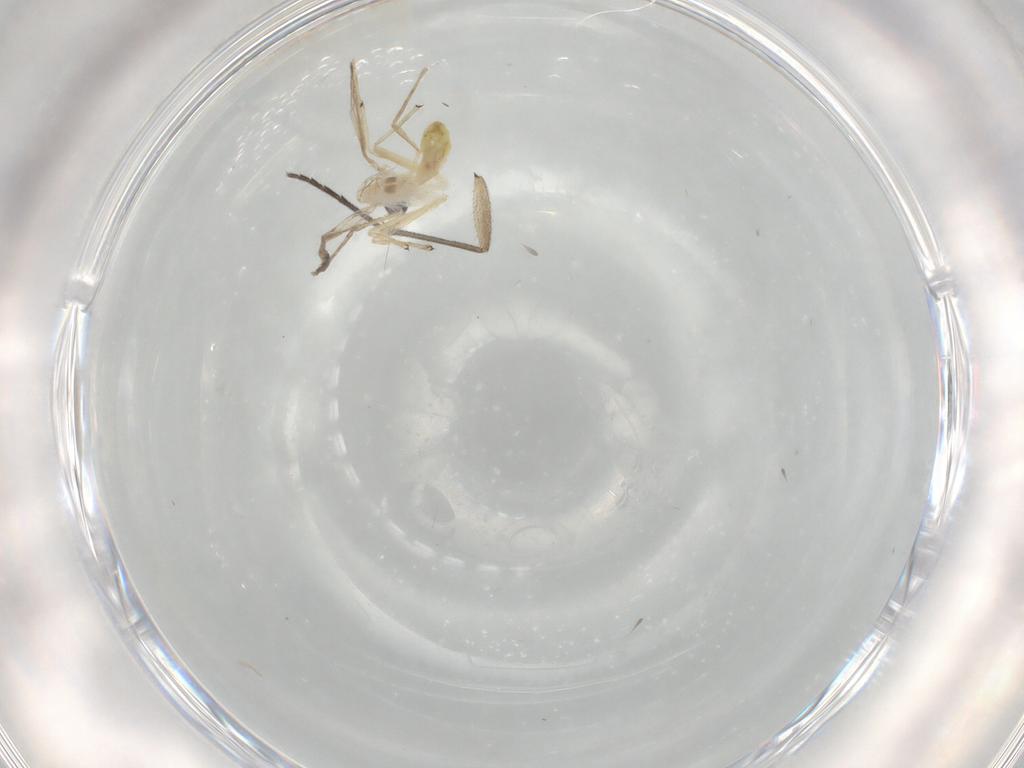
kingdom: Animalia
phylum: Arthropoda
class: Insecta
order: Diptera
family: Chironomidae
